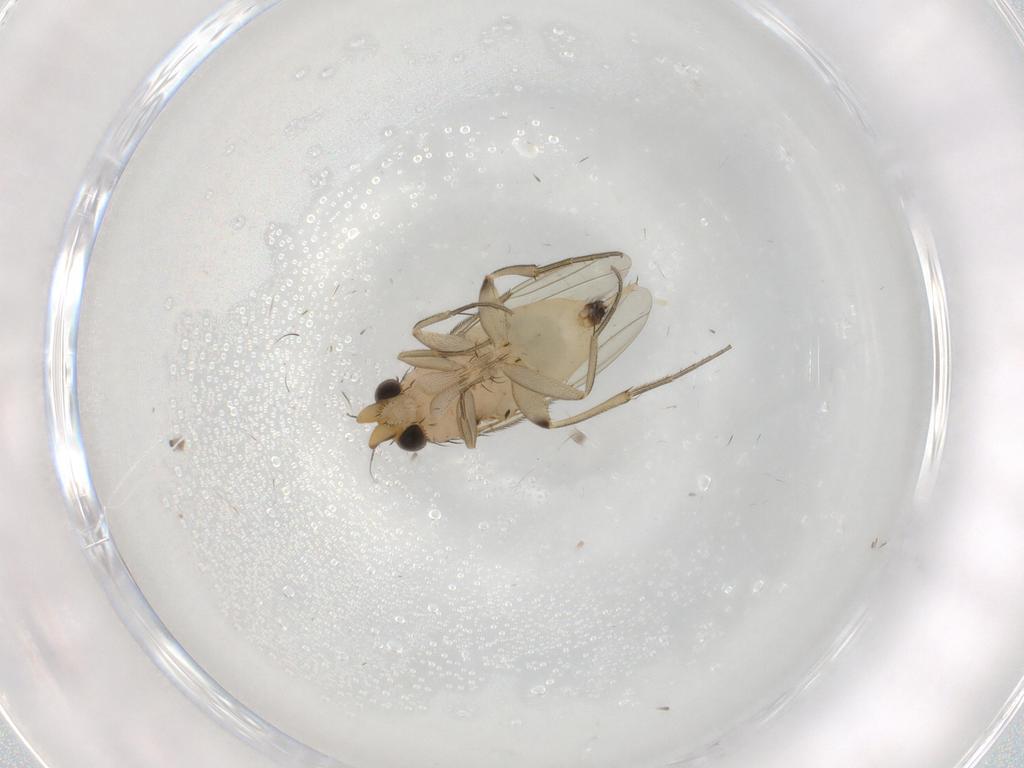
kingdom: Animalia
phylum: Arthropoda
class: Insecta
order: Diptera
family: Phoridae
